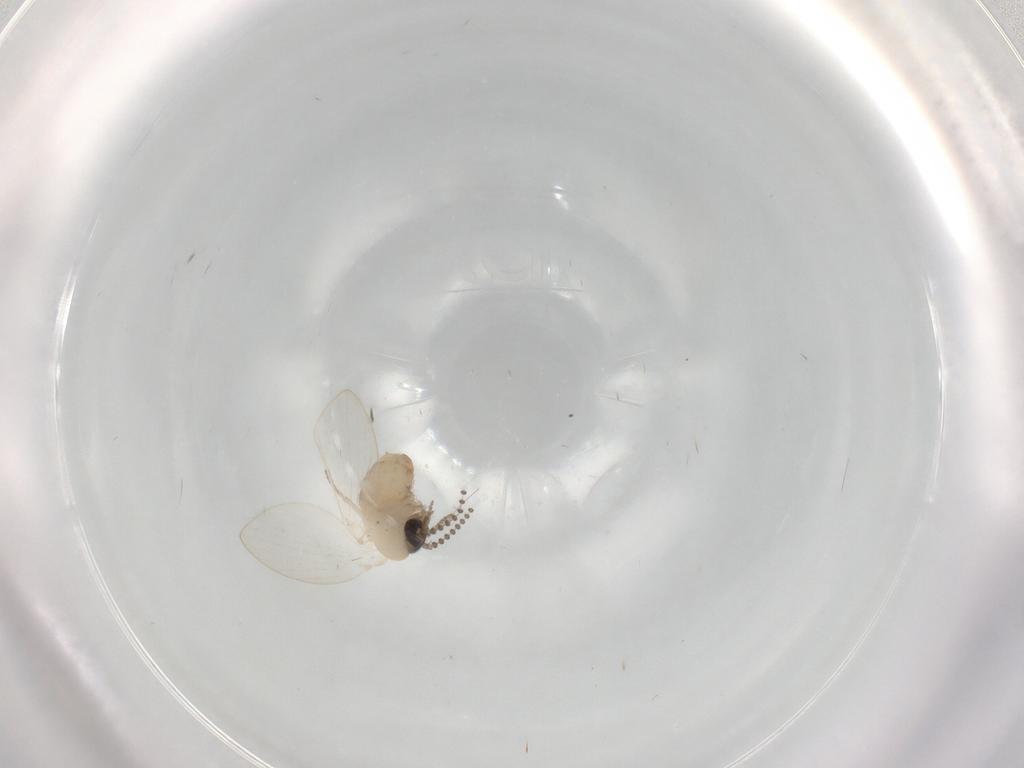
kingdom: Animalia
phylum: Arthropoda
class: Insecta
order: Diptera
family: Psychodidae
